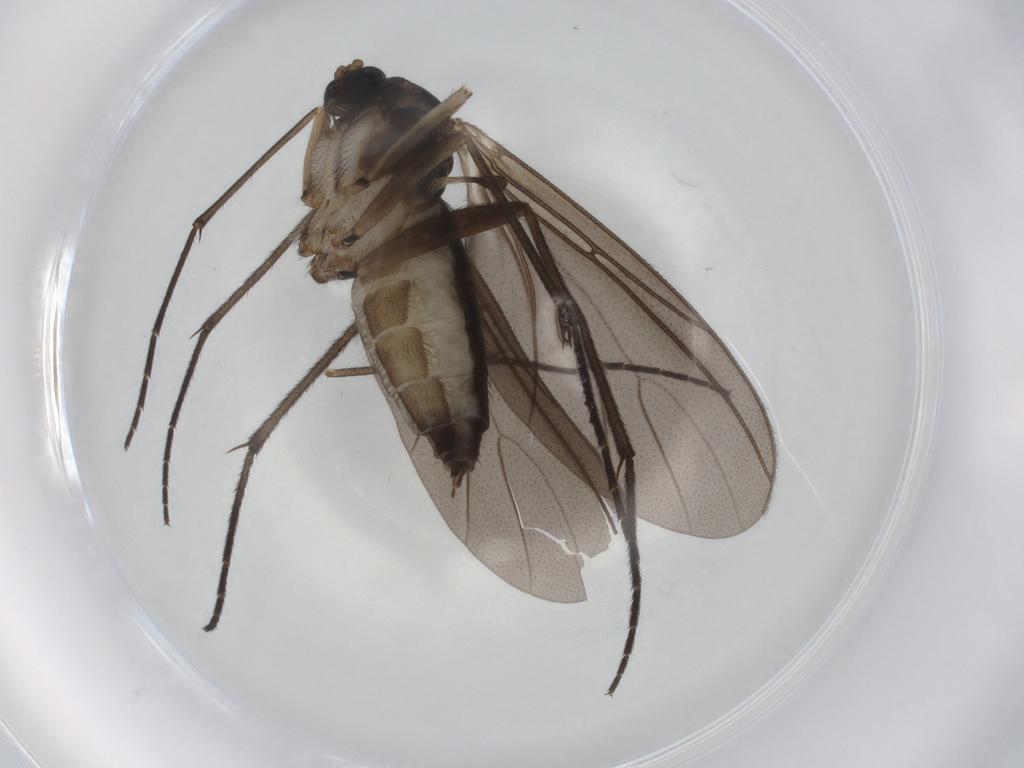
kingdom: Animalia
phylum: Arthropoda
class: Insecta
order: Diptera
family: Sciaridae
